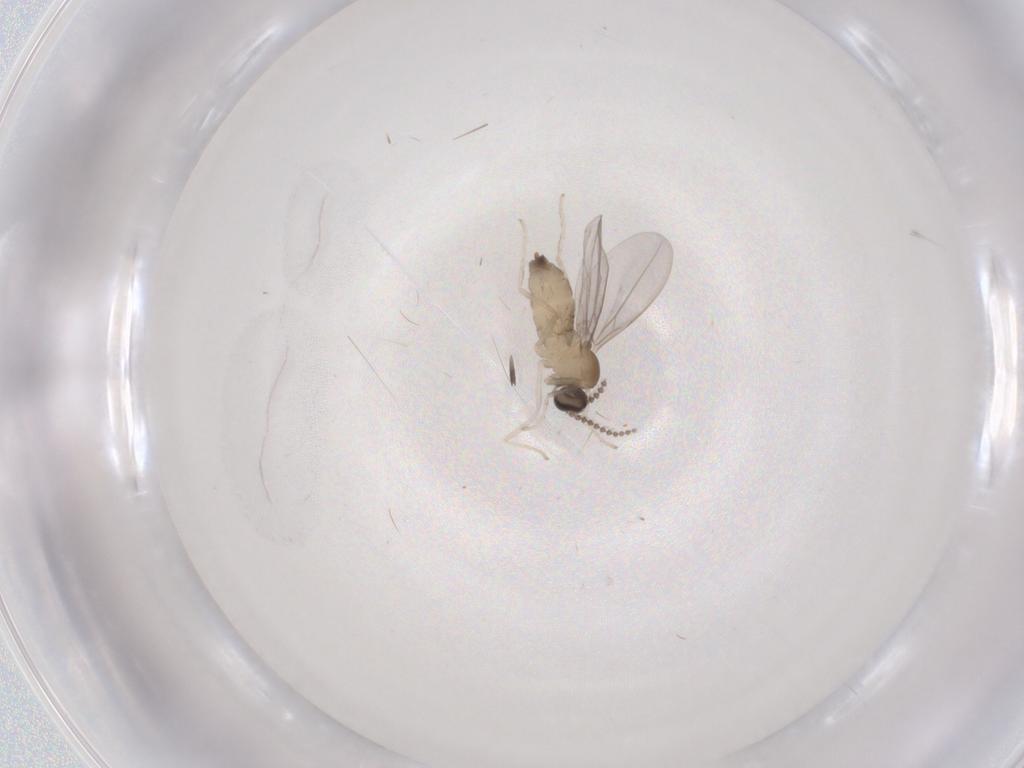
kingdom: Animalia
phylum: Arthropoda
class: Insecta
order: Diptera
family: Cecidomyiidae
